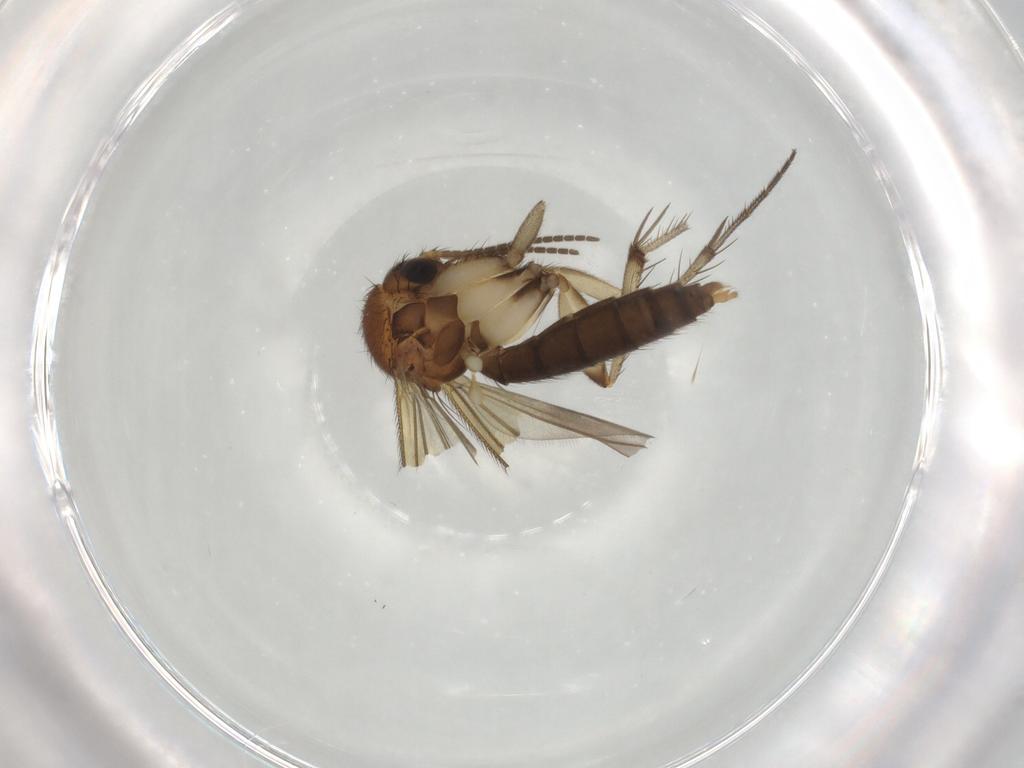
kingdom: Animalia
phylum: Arthropoda
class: Insecta
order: Diptera
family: Mycetophilidae
